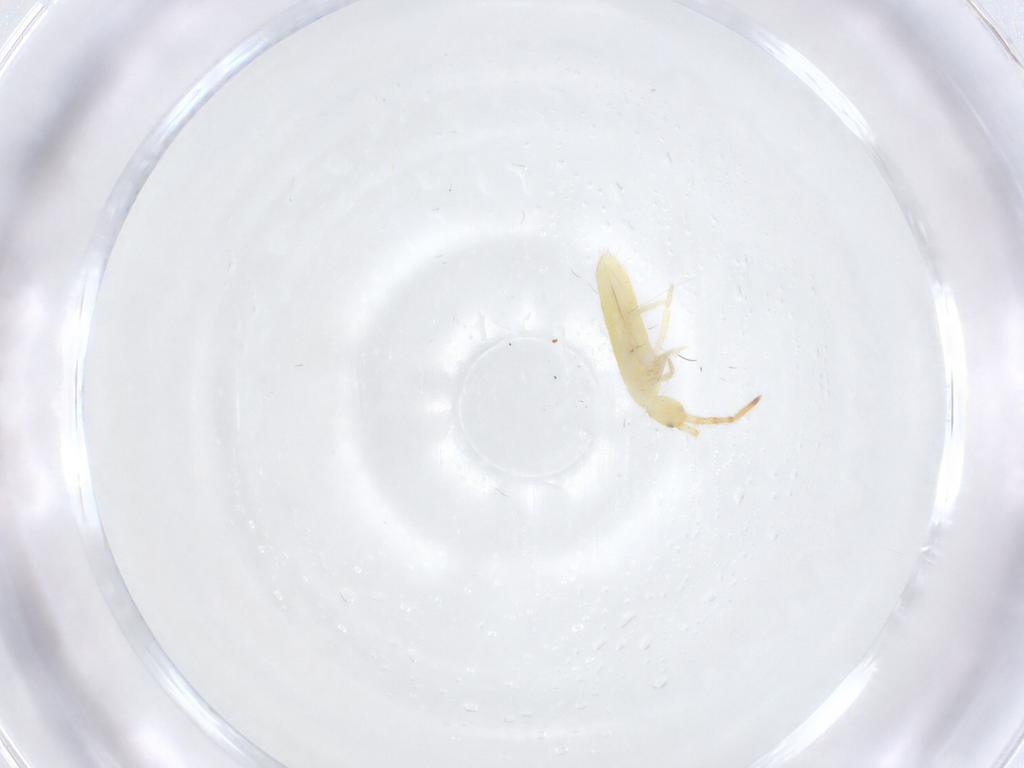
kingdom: Animalia
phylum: Arthropoda
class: Collembola
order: Entomobryomorpha
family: Entomobryidae
